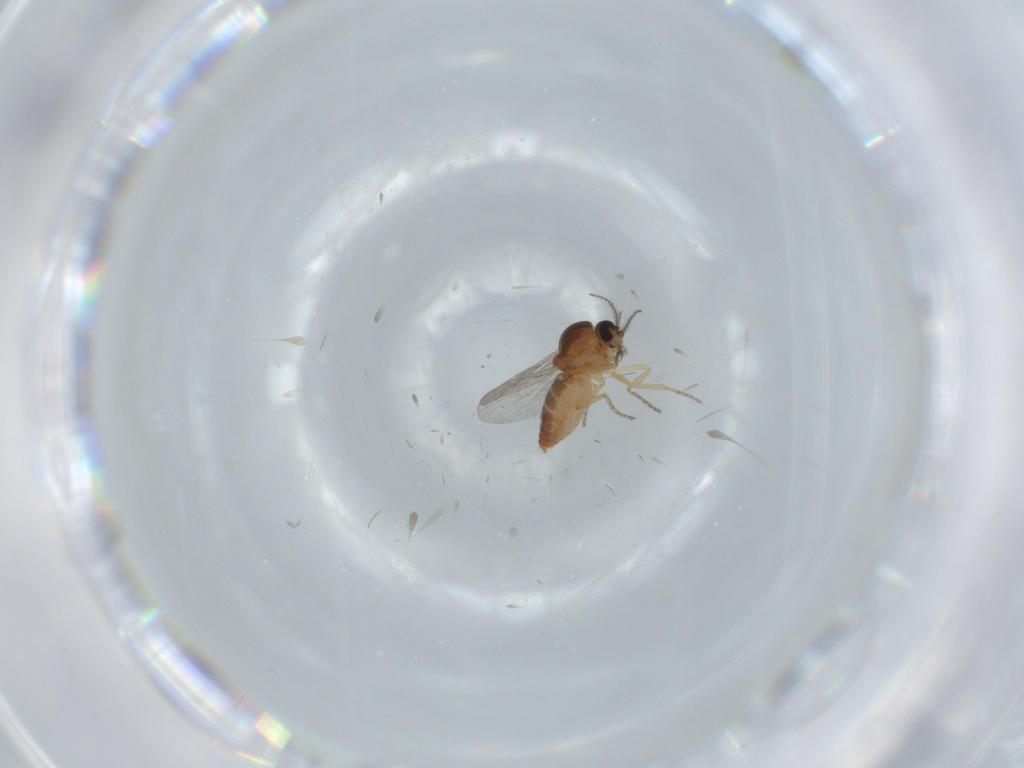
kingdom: Animalia
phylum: Arthropoda
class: Insecta
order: Diptera
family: Ceratopogonidae
